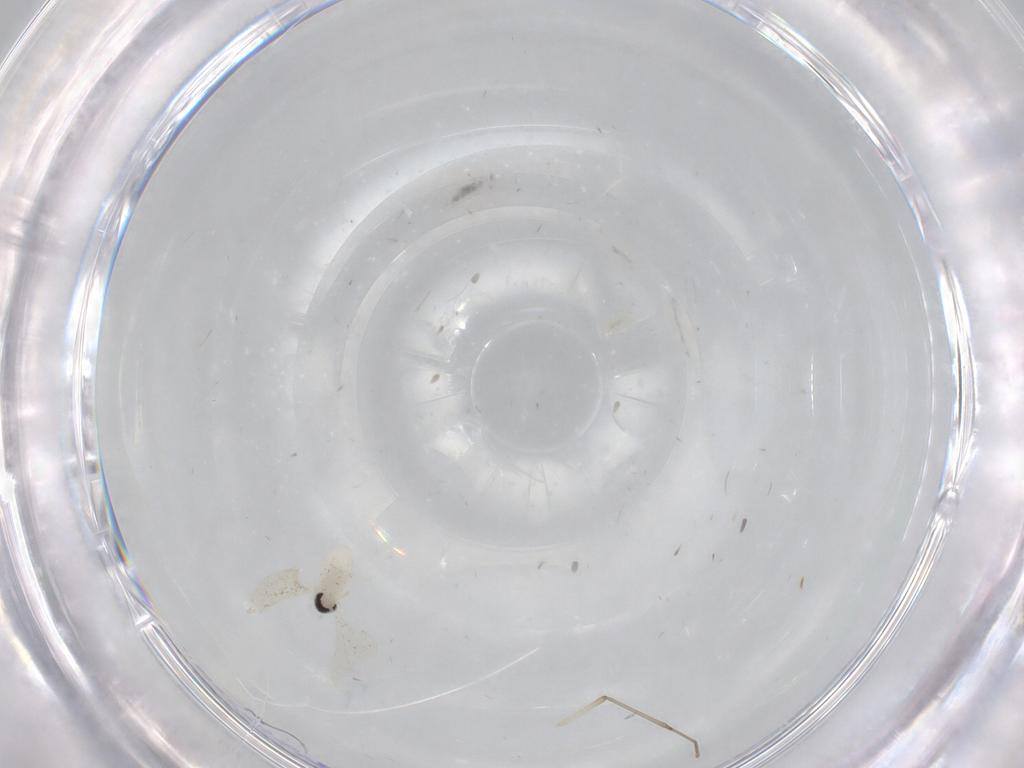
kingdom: Animalia
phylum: Arthropoda
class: Insecta
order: Diptera
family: Cecidomyiidae
